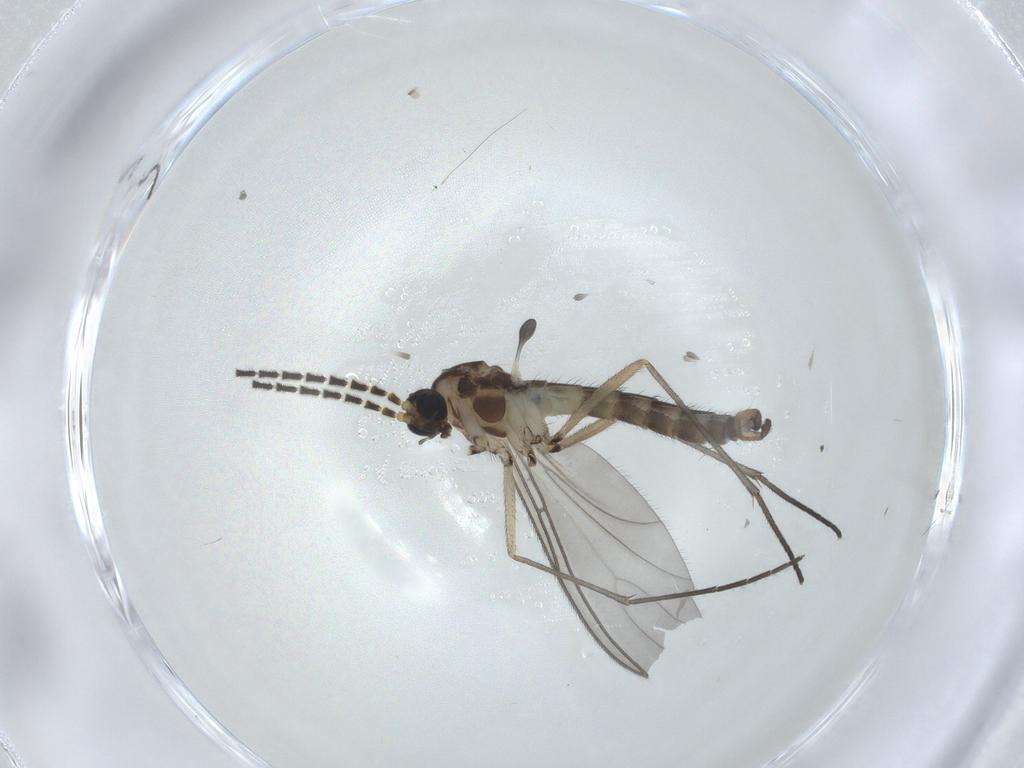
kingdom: Animalia
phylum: Arthropoda
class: Insecta
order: Diptera
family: Sciaridae
